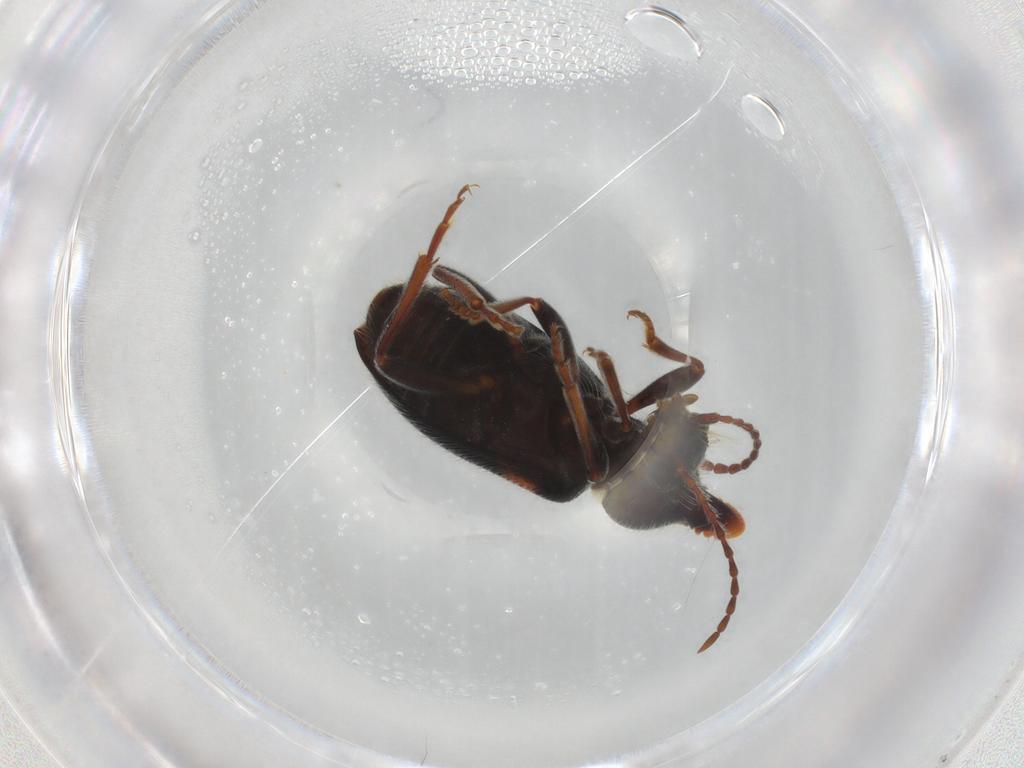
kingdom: Animalia
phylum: Arthropoda
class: Insecta
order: Coleoptera
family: Anthicidae
